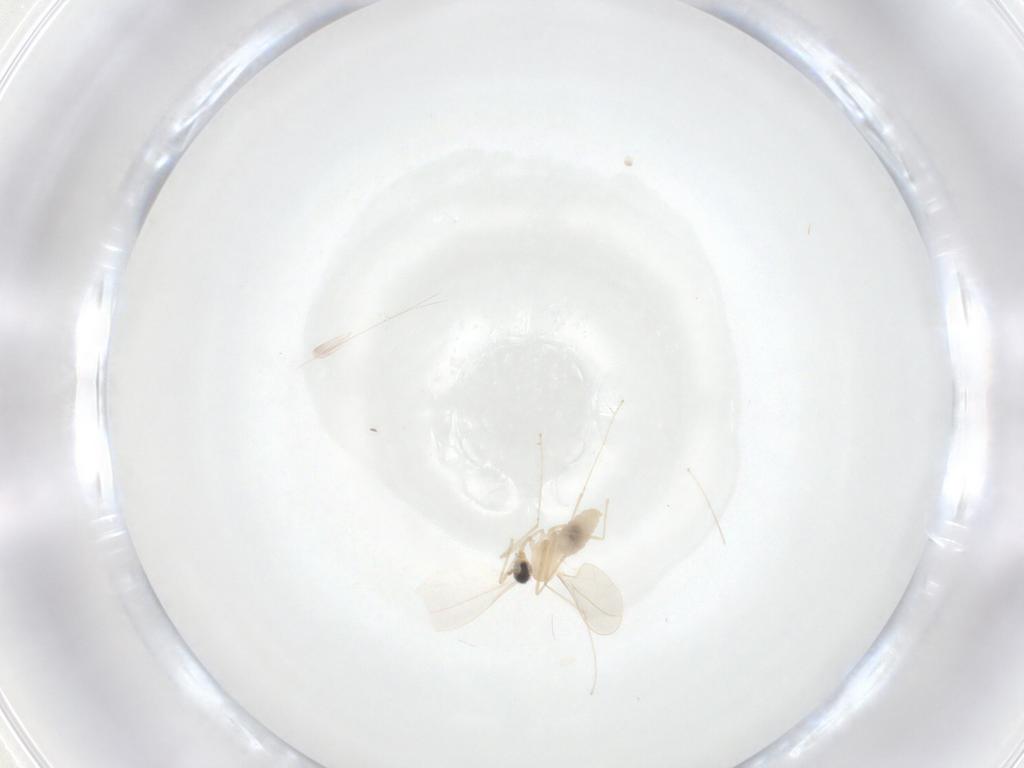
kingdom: Animalia
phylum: Arthropoda
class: Insecta
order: Diptera
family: Cecidomyiidae
